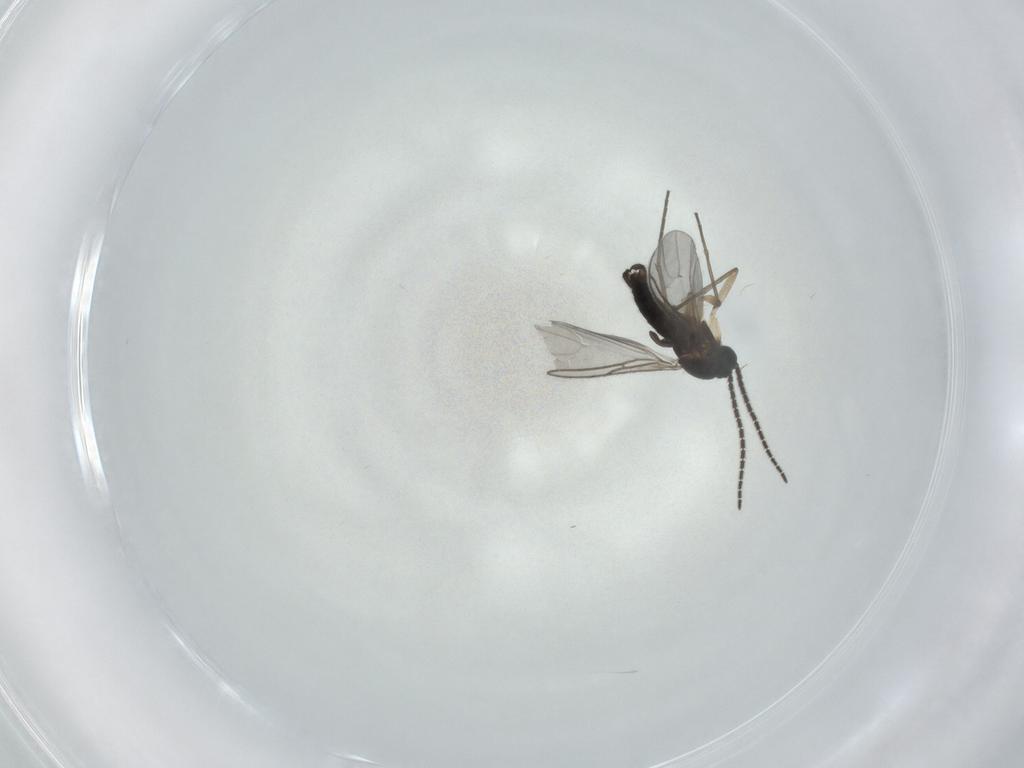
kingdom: Animalia
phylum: Arthropoda
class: Insecta
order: Diptera
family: Sciaridae
